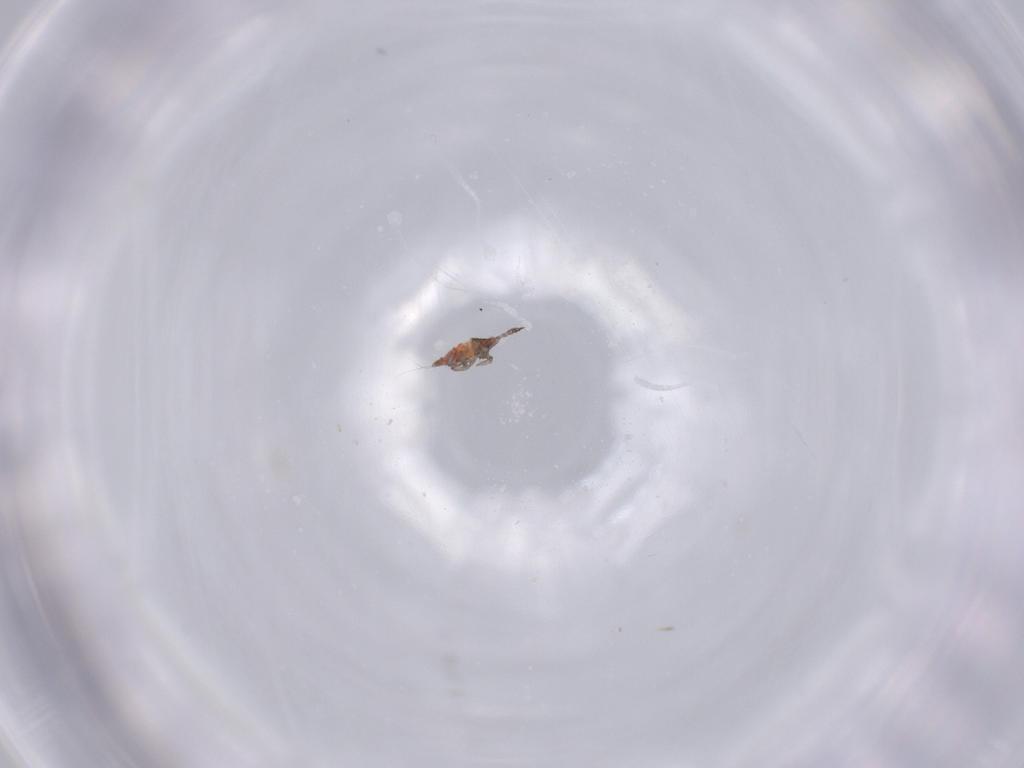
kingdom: Animalia
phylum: Arthropoda
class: Insecta
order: Thysanoptera
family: Phlaeothripidae
